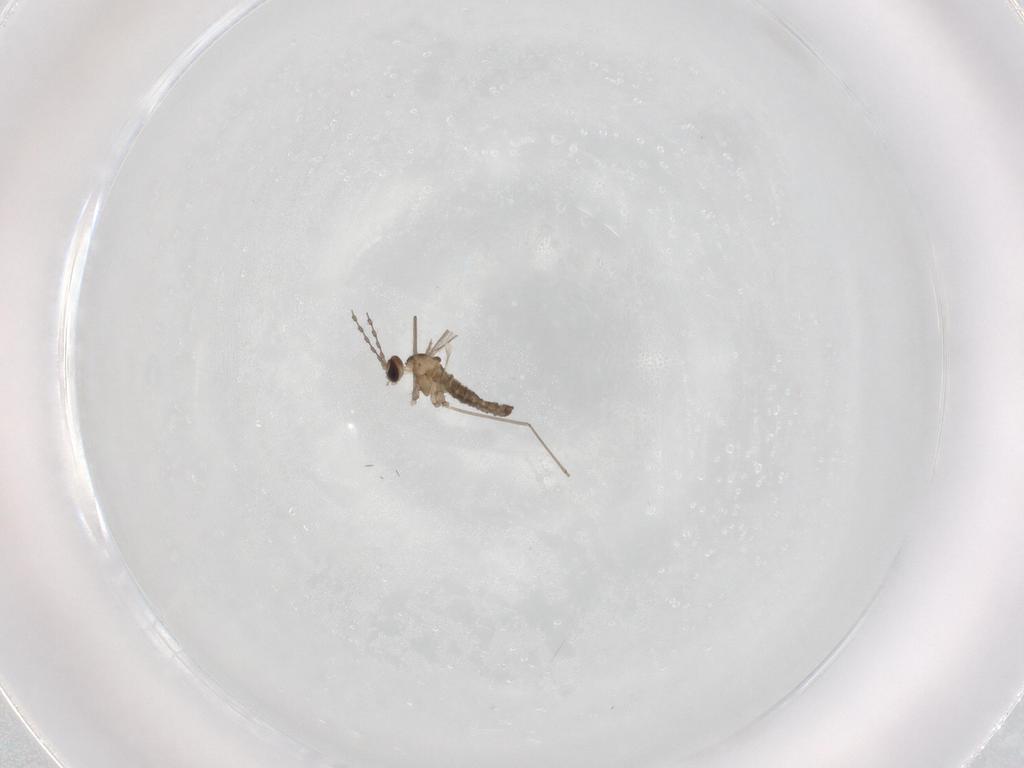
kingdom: Animalia
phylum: Arthropoda
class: Insecta
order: Diptera
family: Cecidomyiidae
